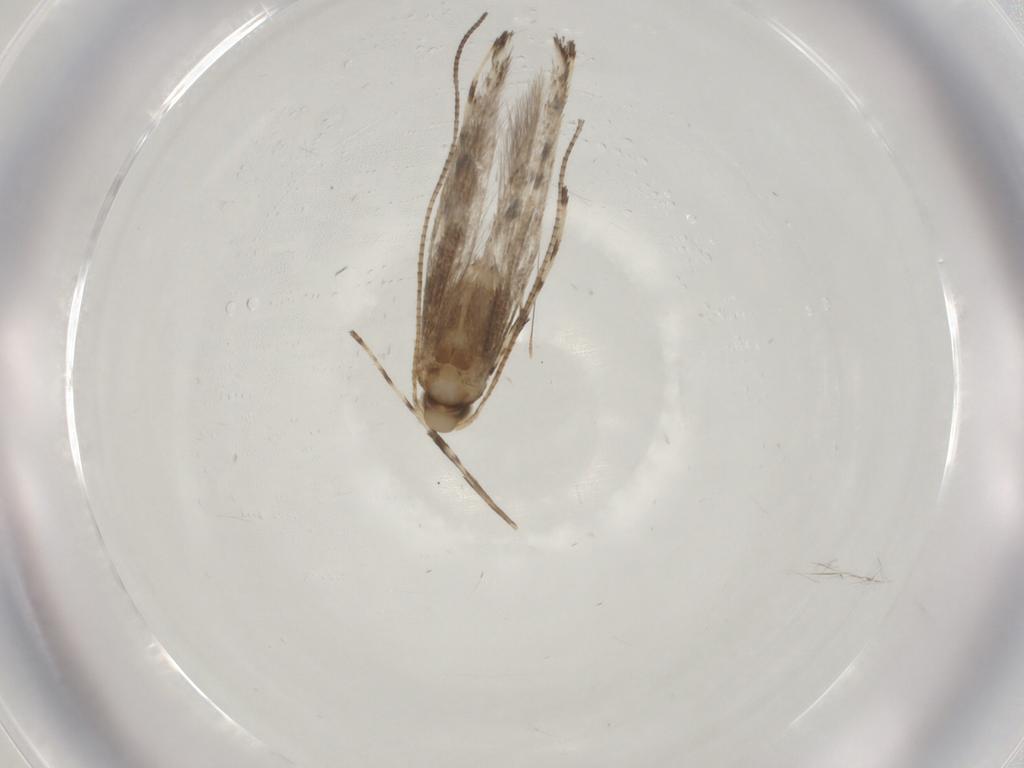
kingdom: Animalia
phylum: Arthropoda
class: Insecta
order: Lepidoptera
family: Gracillariidae
